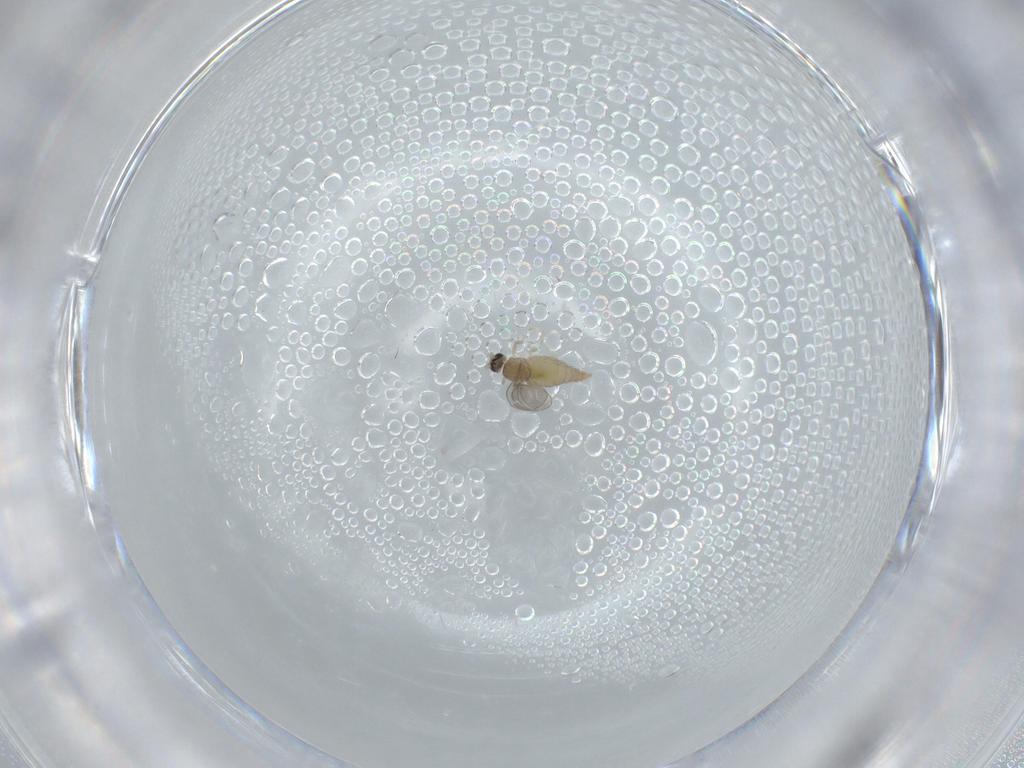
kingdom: Animalia
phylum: Arthropoda
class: Insecta
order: Diptera
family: Cecidomyiidae
